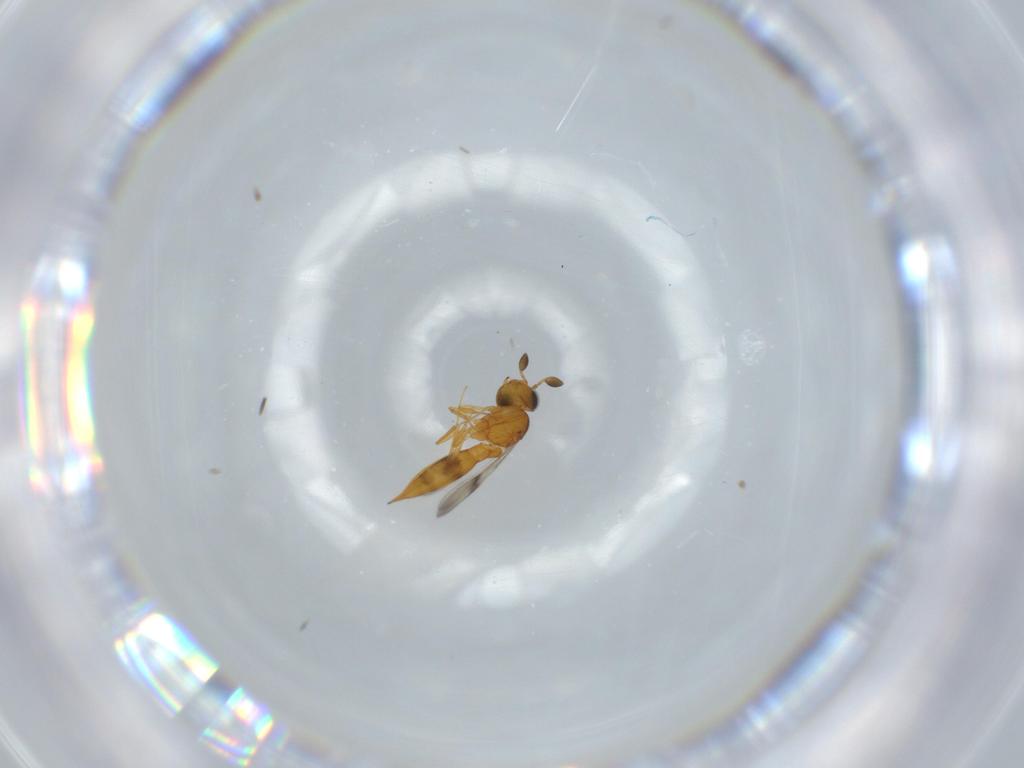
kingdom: Animalia
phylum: Arthropoda
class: Insecta
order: Hymenoptera
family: Scelionidae
